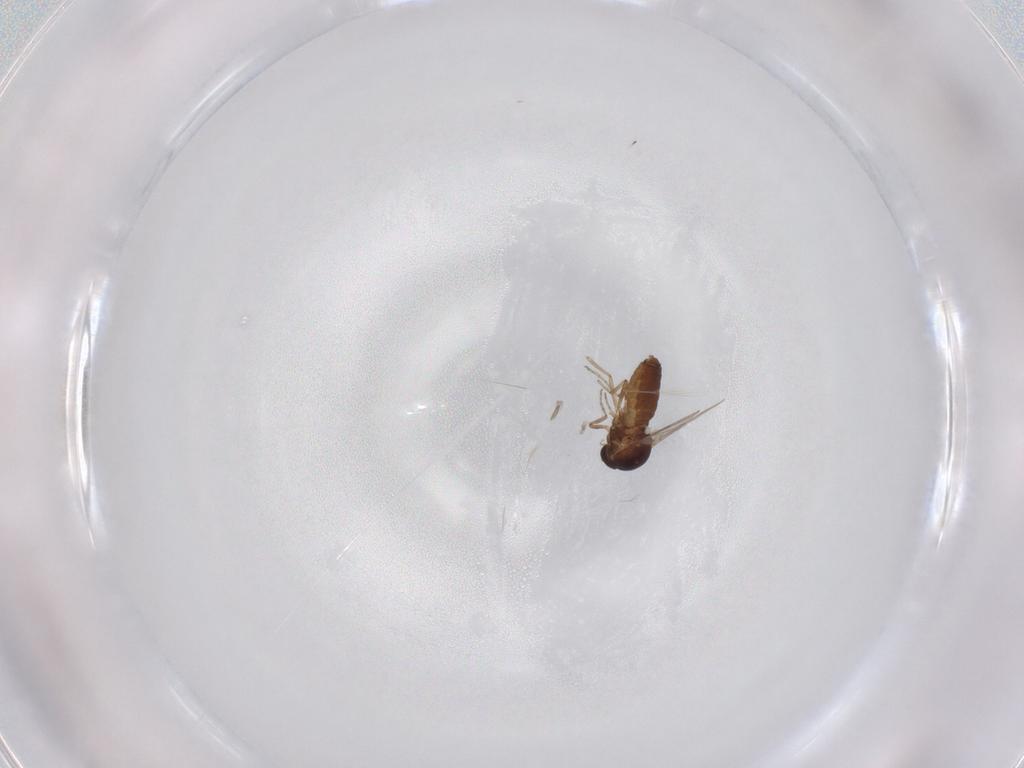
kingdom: Animalia
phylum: Arthropoda
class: Insecta
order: Diptera
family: Ceratopogonidae
